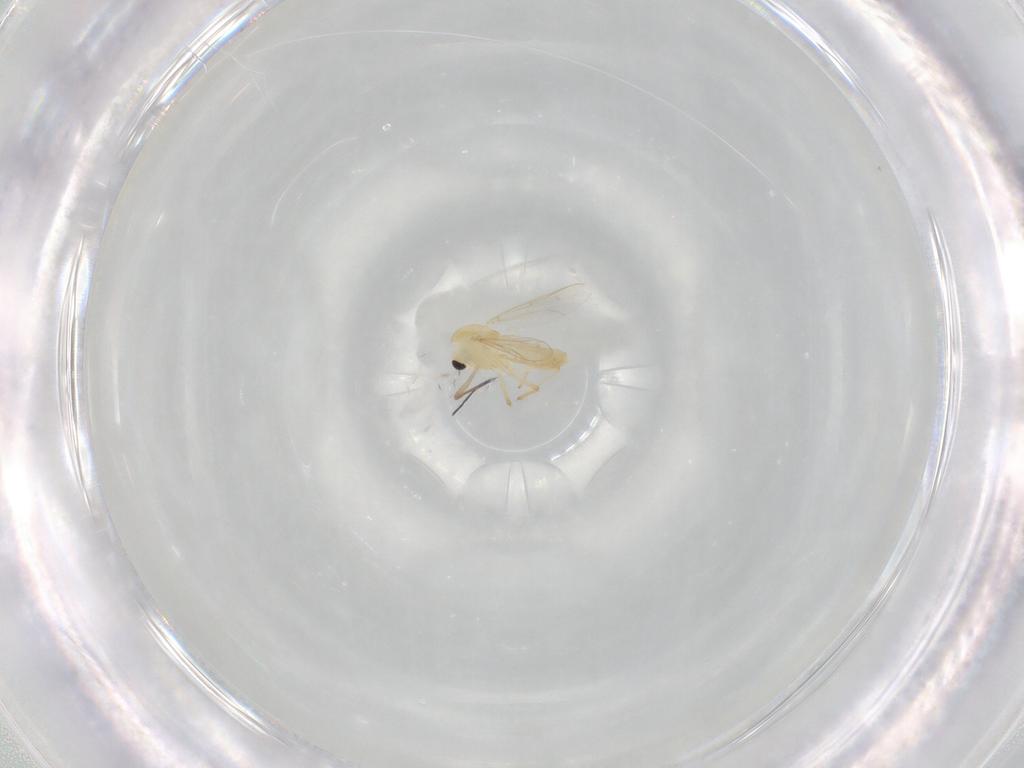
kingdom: Animalia
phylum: Arthropoda
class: Insecta
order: Diptera
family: Chironomidae
